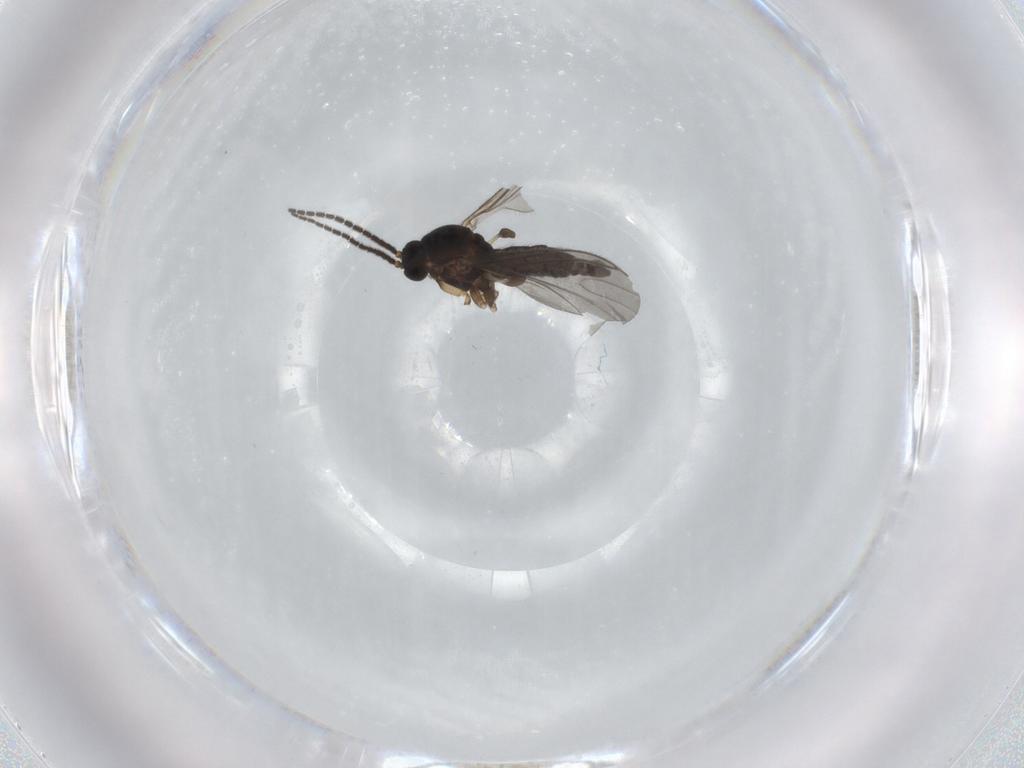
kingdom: Animalia
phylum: Arthropoda
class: Insecta
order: Diptera
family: Sciaridae
